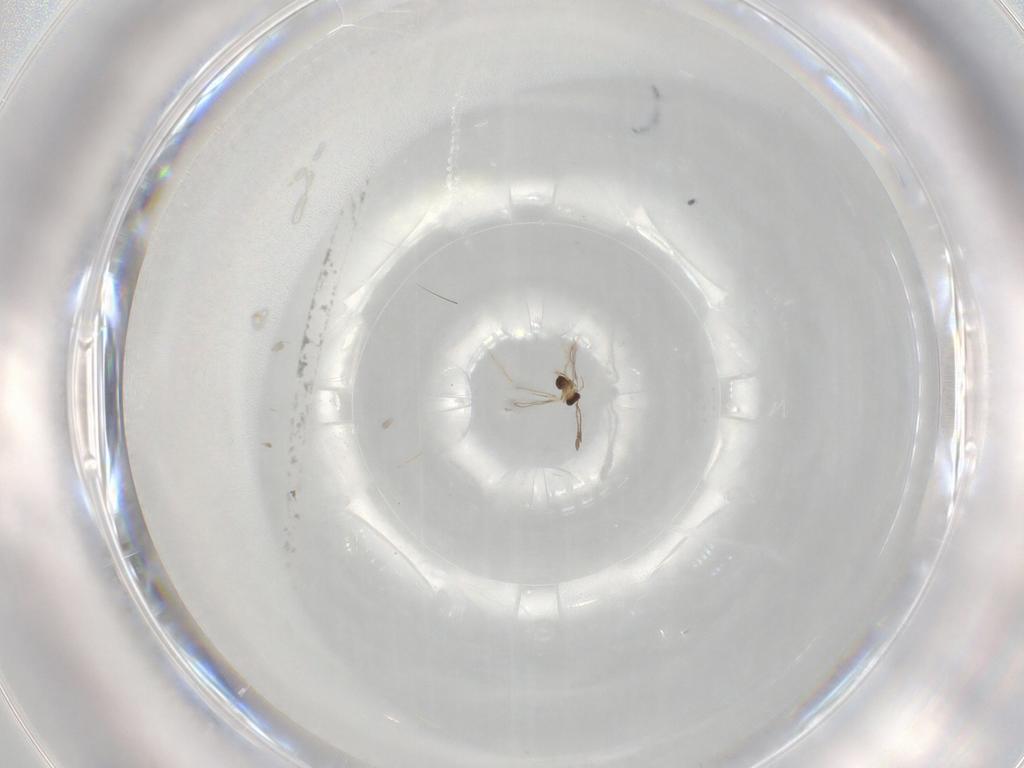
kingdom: Animalia
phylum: Arthropoda
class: Insecta
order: Hymenoptera
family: Mymaridae
